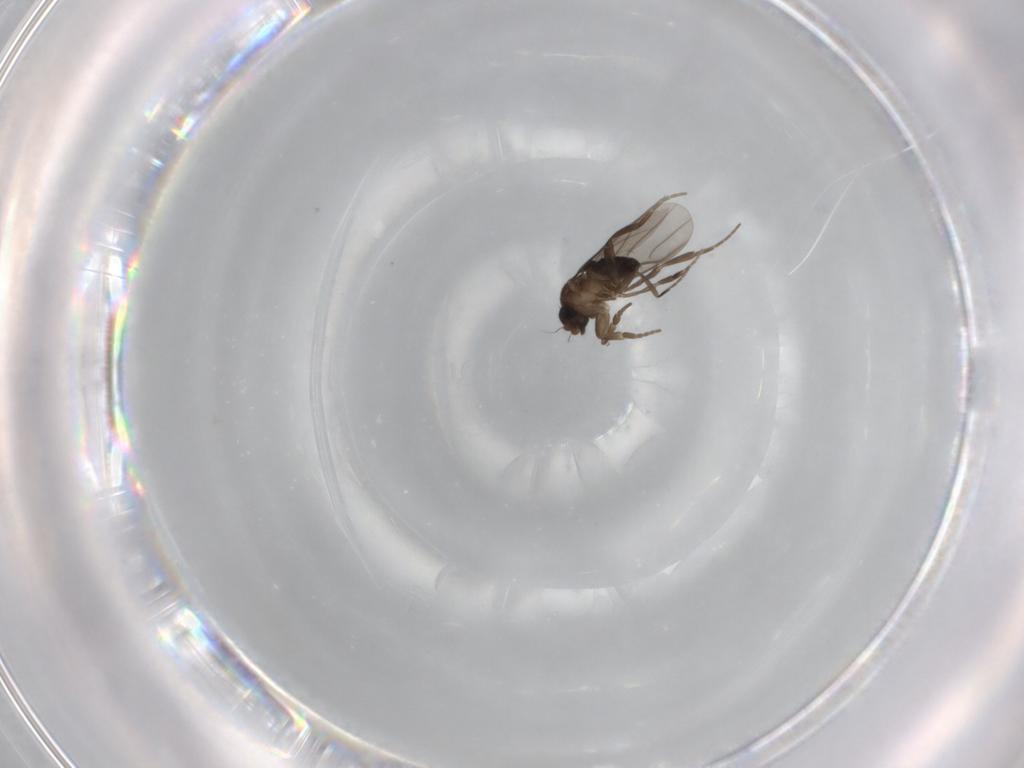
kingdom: Animalia
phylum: Arthropoda
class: Insecta
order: Diptera
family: Phoridae
